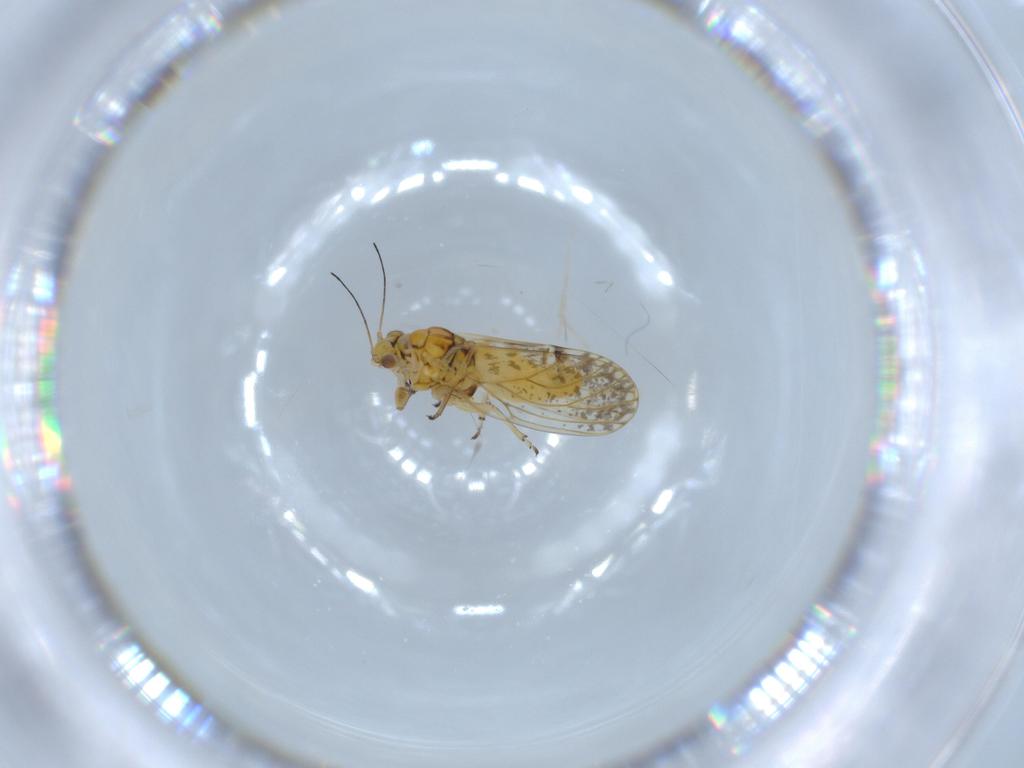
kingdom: Animalia
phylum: Arthropoda
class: Insecta
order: Hemiptera
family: Psyllidae
